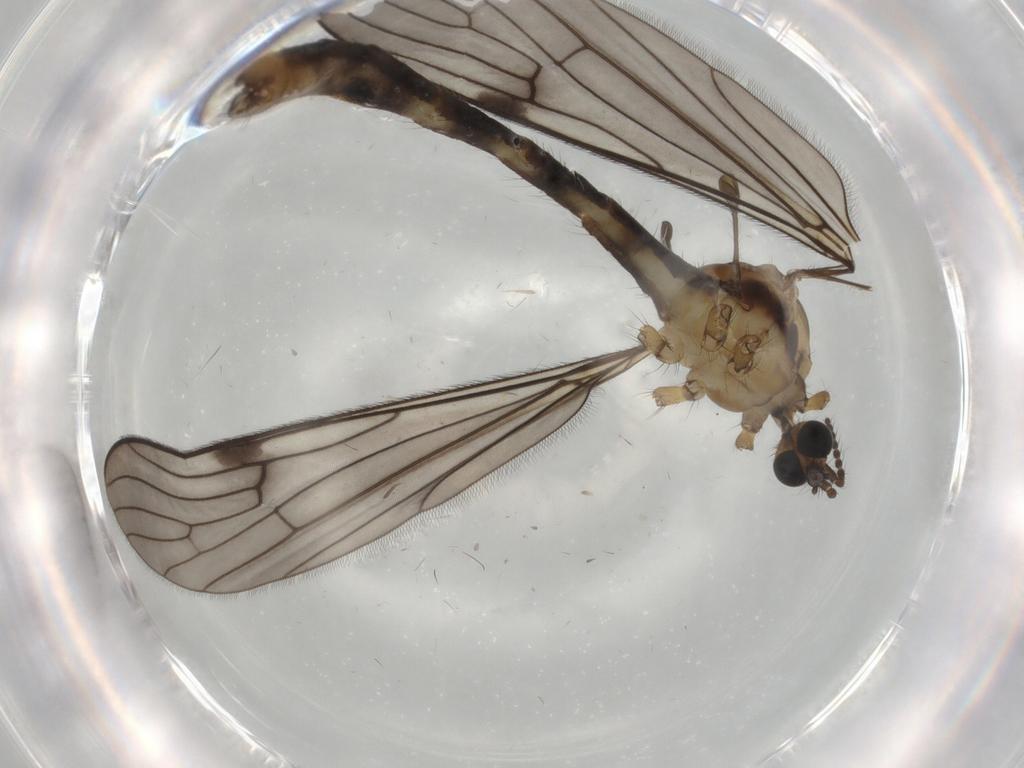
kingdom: Animalia
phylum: Arthropoda
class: Insecta
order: Diptera
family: Limoniidae
